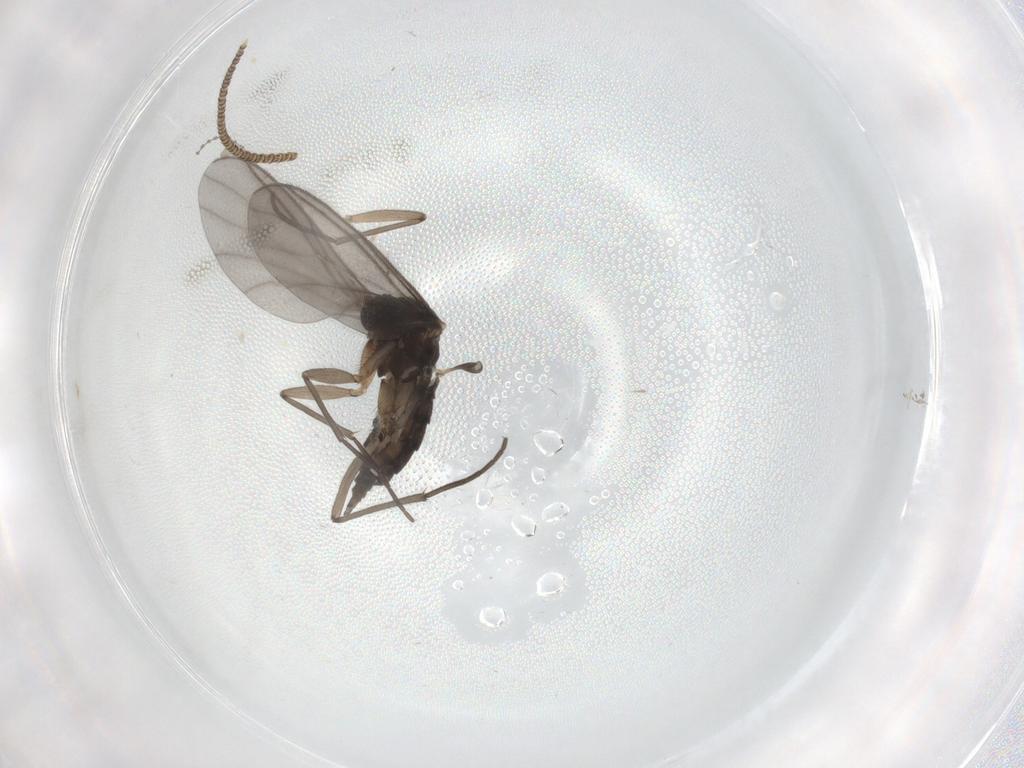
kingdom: Animalia
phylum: Arthropoda
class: Insecta
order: Diptera
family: Sciaridae
